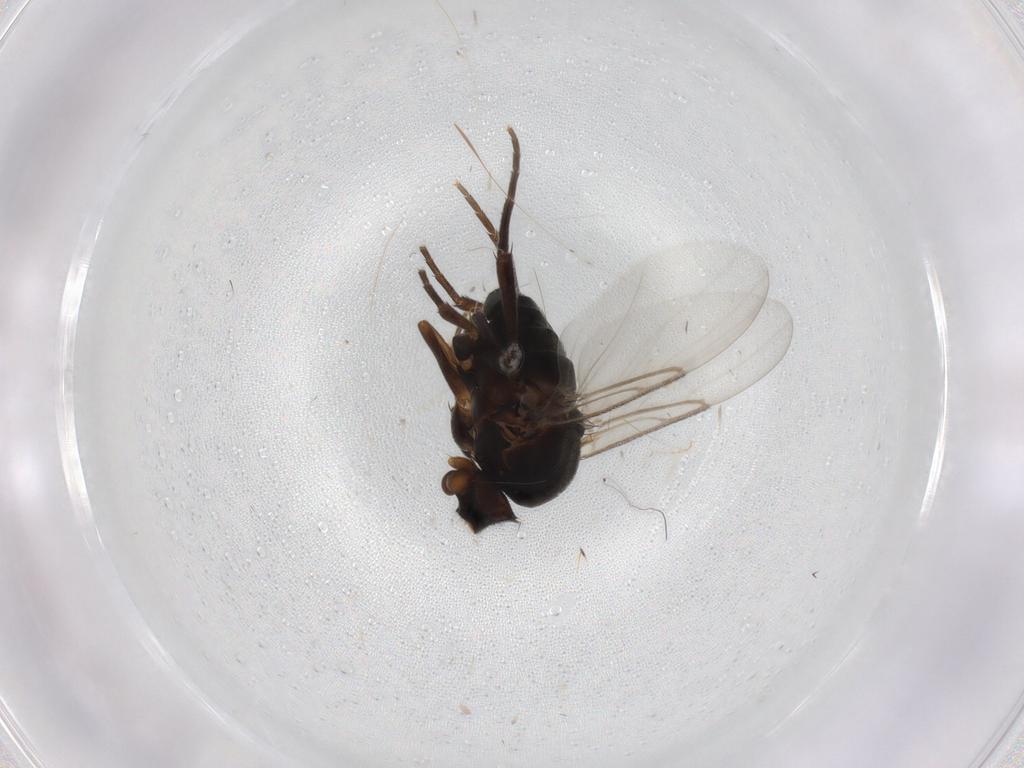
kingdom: Animalia
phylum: Arthropoda
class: Insecta
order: Diptera
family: Phoridae
